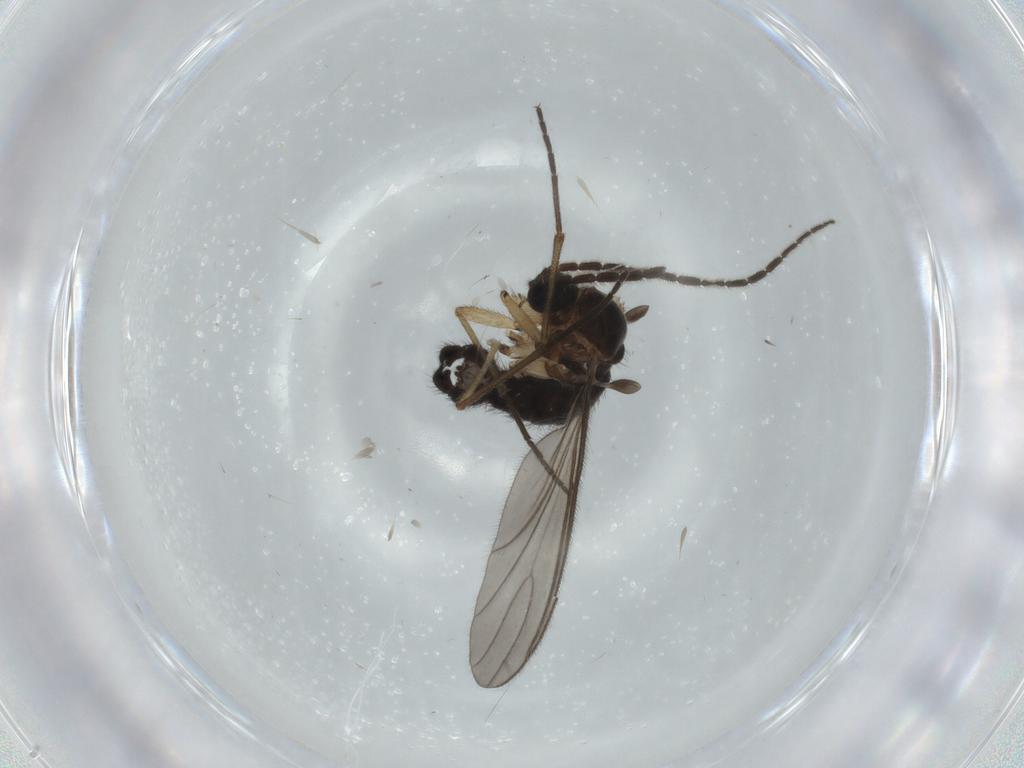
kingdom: Animalia
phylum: Arthropoda
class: Insecta
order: Diptera
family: Sciaridae
